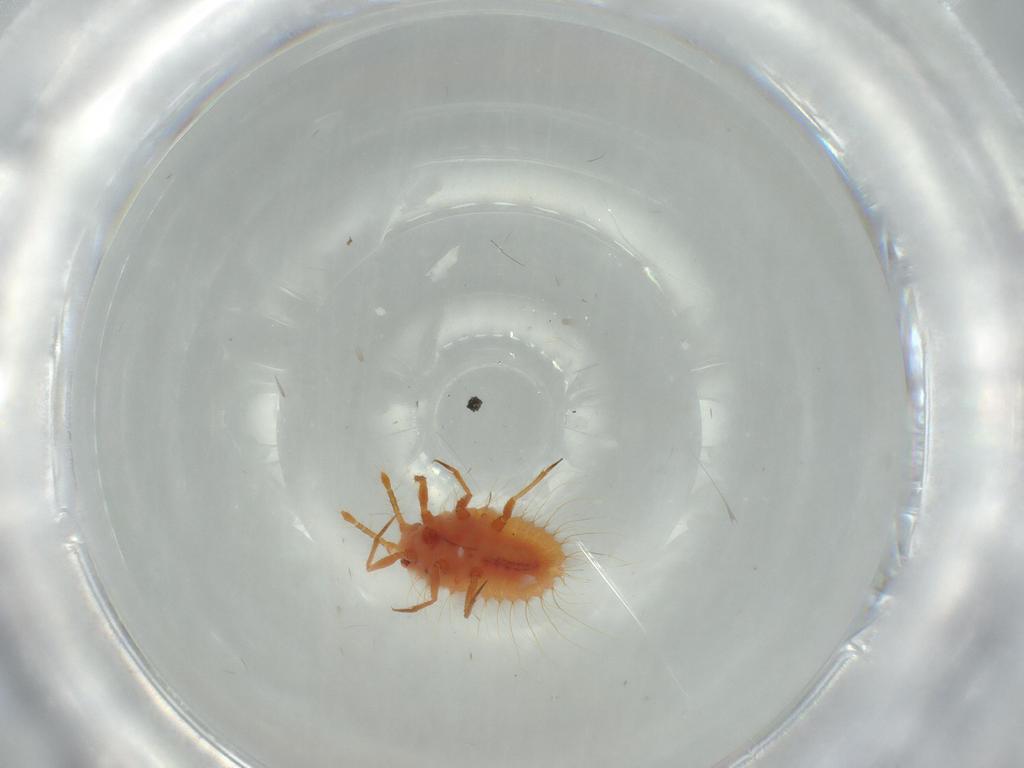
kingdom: Animalia
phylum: Arthropoda
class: Insecta
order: Hemiptera
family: Coccoidea_incertae_sedis
